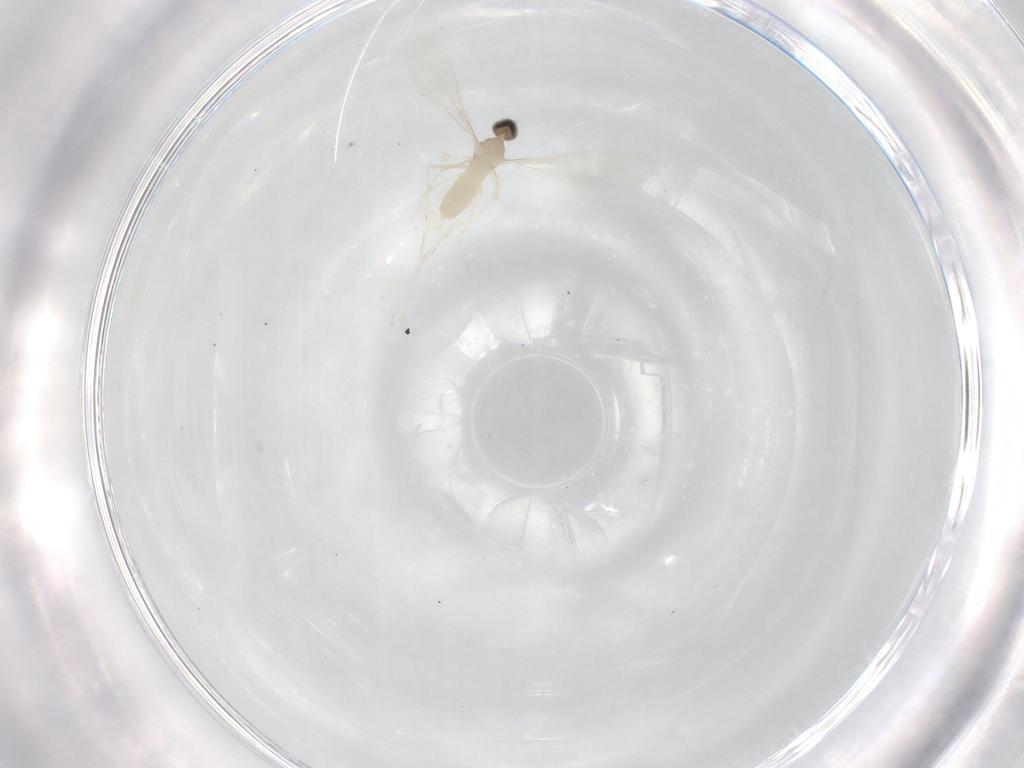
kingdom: Animalia
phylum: Arthropoda
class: Insecta
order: Diptera
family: Cecidomyiidae
